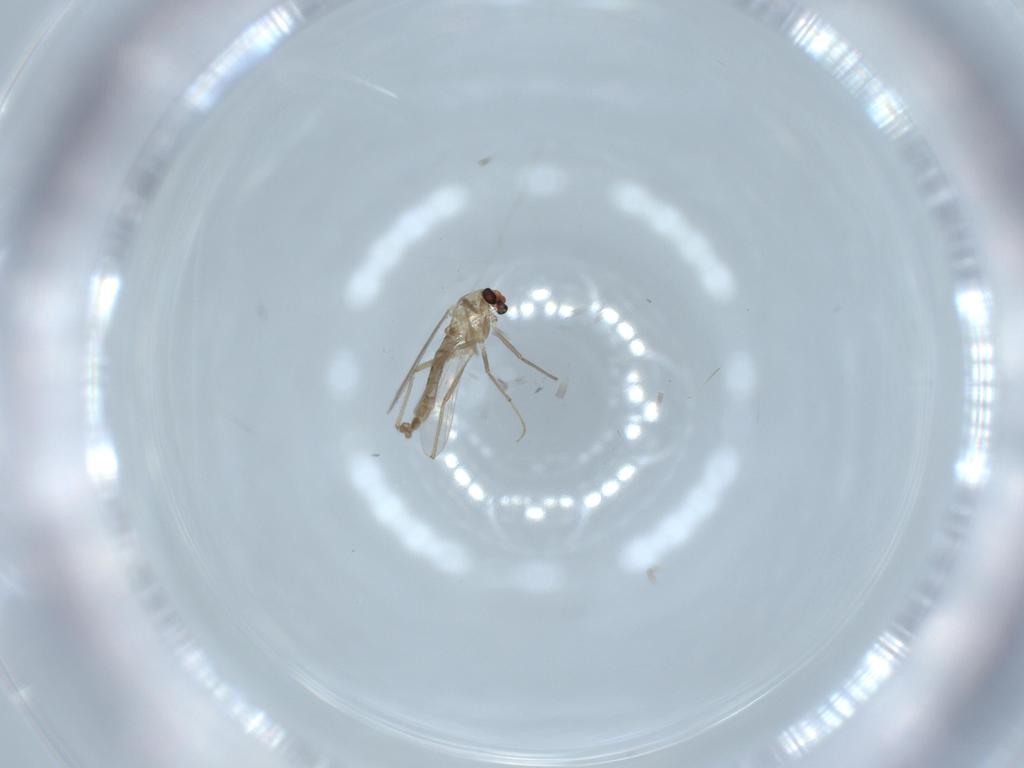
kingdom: Animalia
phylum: Arthropoda
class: Insecta
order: Diptera
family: Chironomidae
